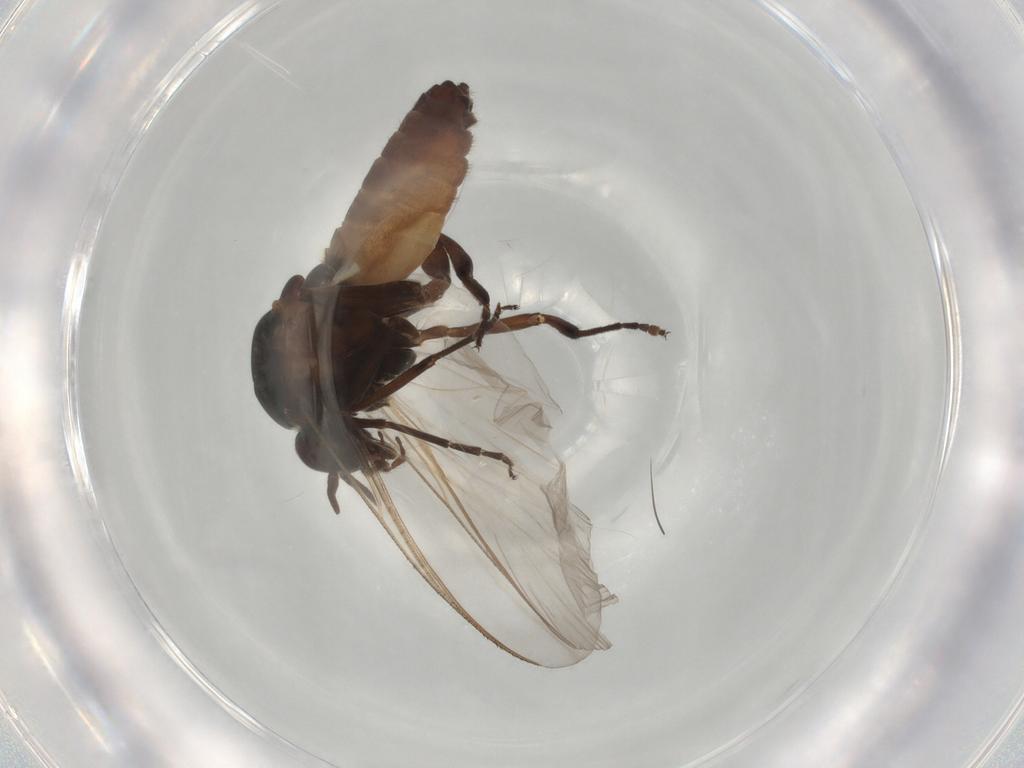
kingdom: Animalia
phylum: Arthropoda
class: Insecta
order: Diptera
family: Simuliidae
